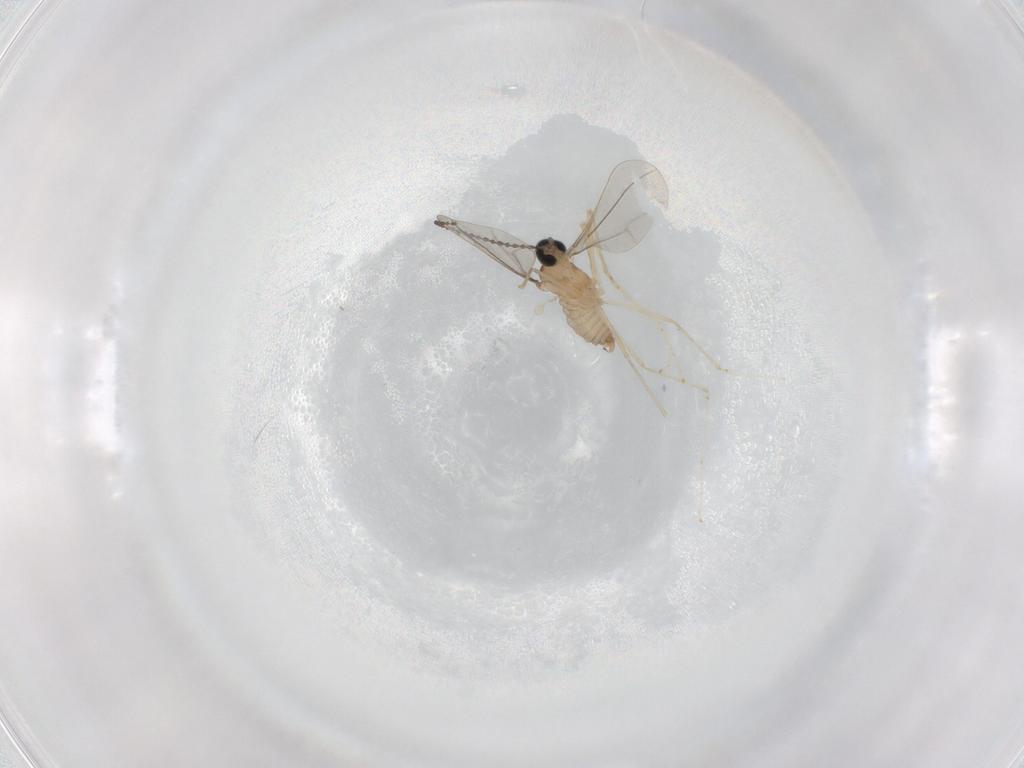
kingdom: Animalia
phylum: Arthropoda
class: Insecta
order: Diptera
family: Cecidomyiidae
